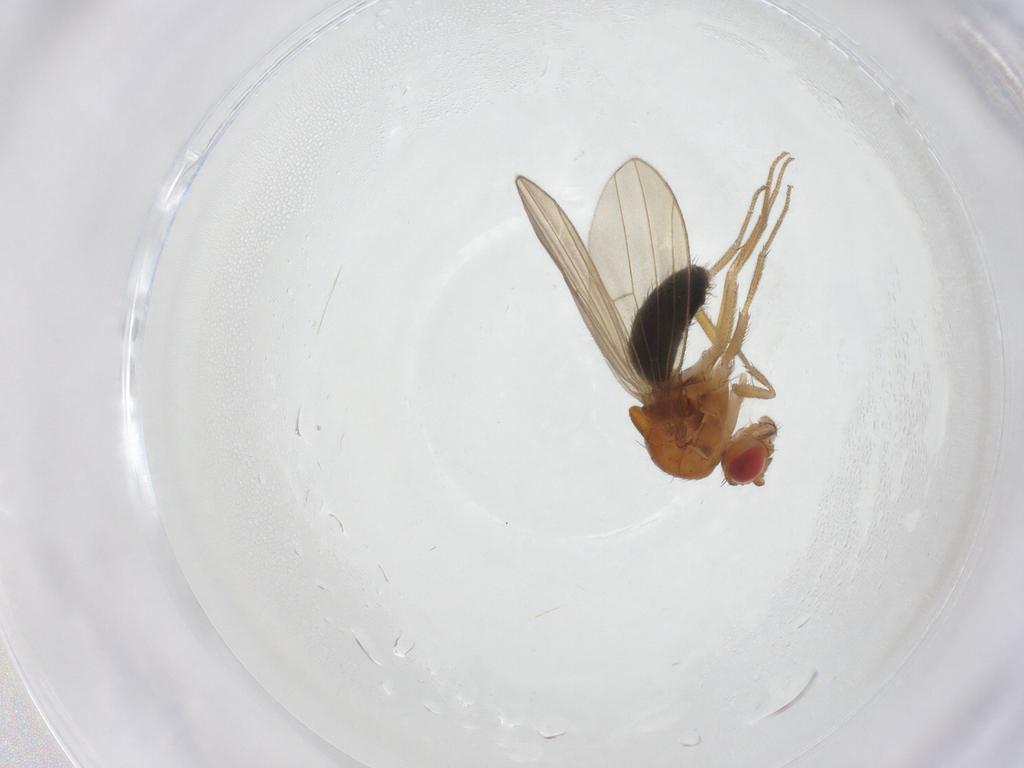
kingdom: Animalia
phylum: Arthropoda
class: Insecta
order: Diptera
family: Drosophilidae
